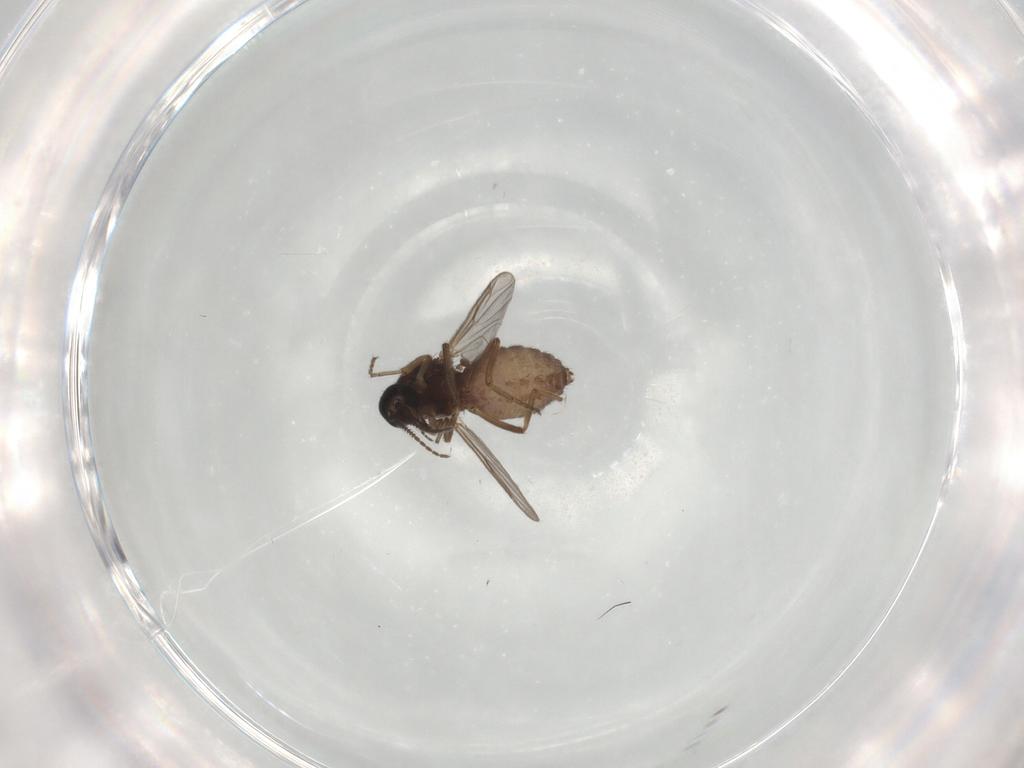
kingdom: Animalia
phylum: Arthropoda
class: Insecta
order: Diptera
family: Ceratopogonidae
